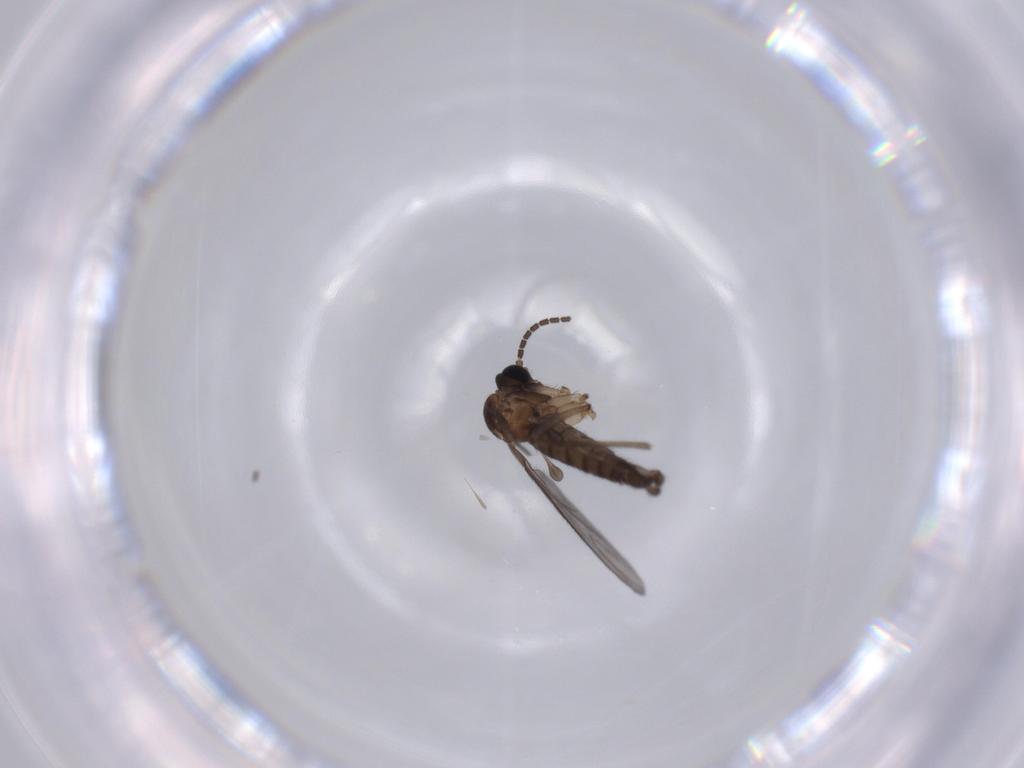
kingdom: Animalia
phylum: Arthropoda
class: Insecta
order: Diptera
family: Sciaridae
